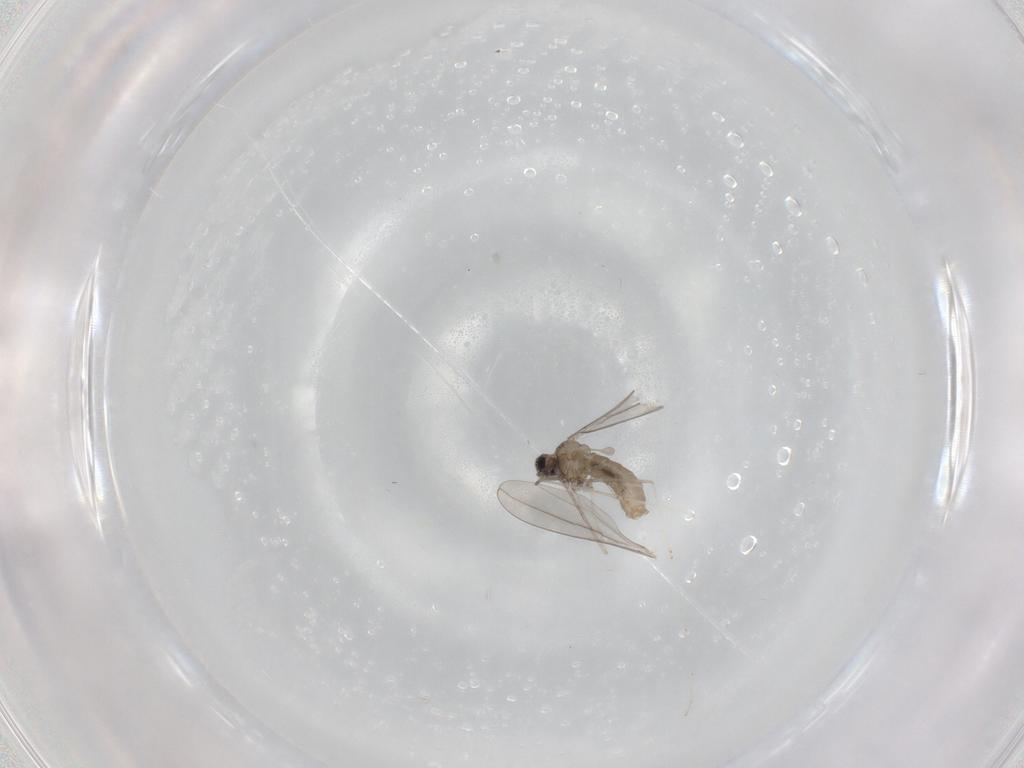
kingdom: Animalia
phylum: Arthropoda
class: Insecta
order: Diptera
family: Cecidomyiidae
